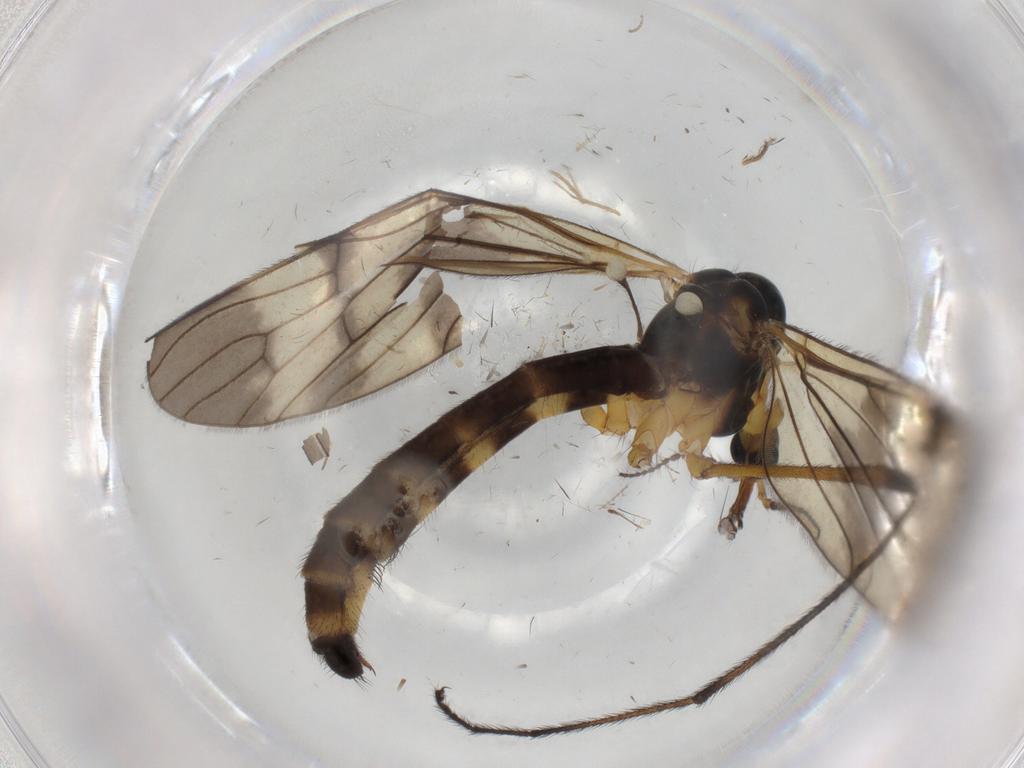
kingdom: Animalia
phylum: Arthropoda
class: Insecta
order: Diptera
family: Limoniidae
